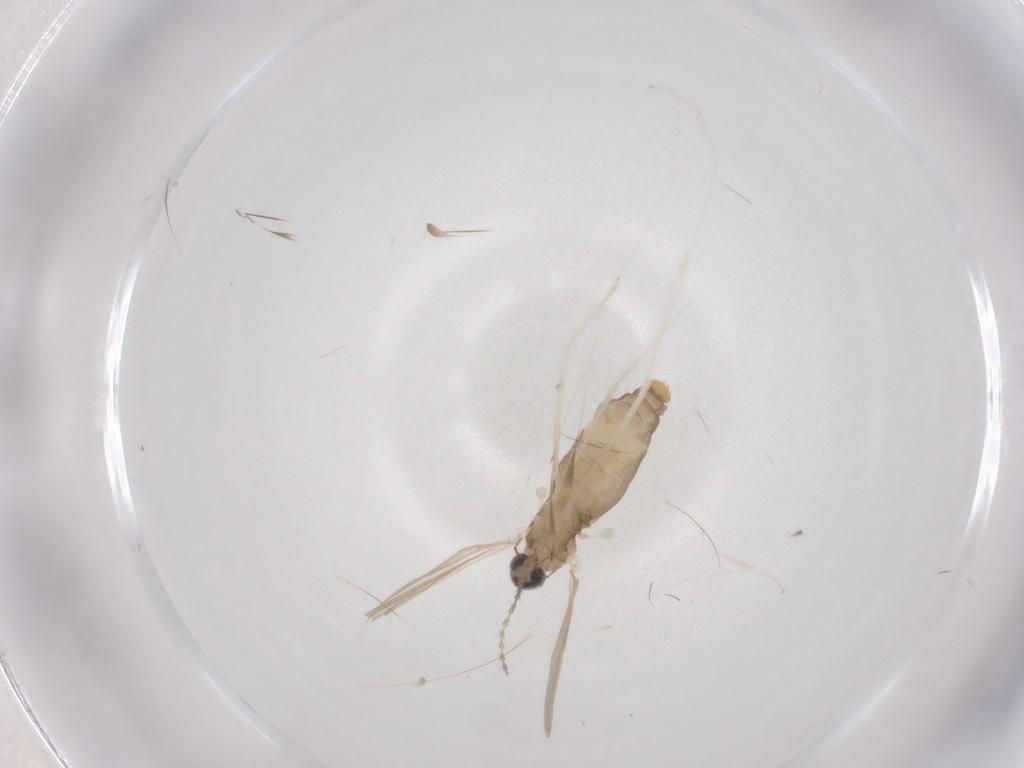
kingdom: Animalia
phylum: Arthropoda
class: Insecta
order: Diptera
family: Cecidomyiidae
